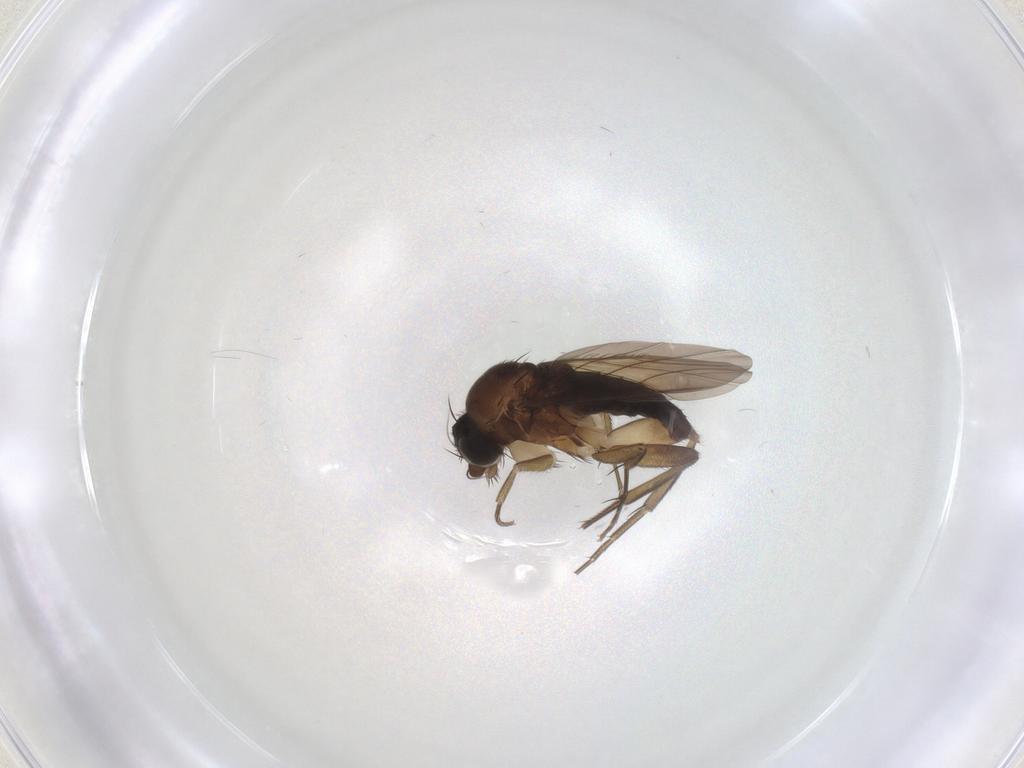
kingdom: Animalia
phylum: Arthropoda
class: Insecta
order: Diptera
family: Phoridae
